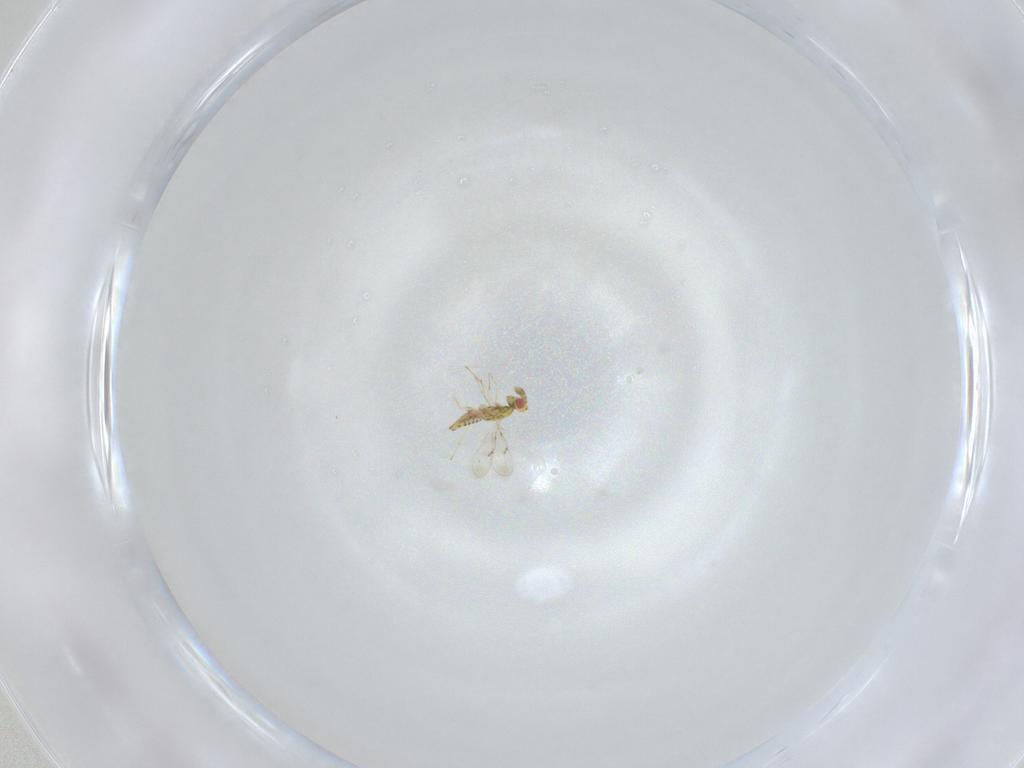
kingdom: Animalia
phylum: Arthropoda
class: Insecta
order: Hymenoptera
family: Eulophidae
